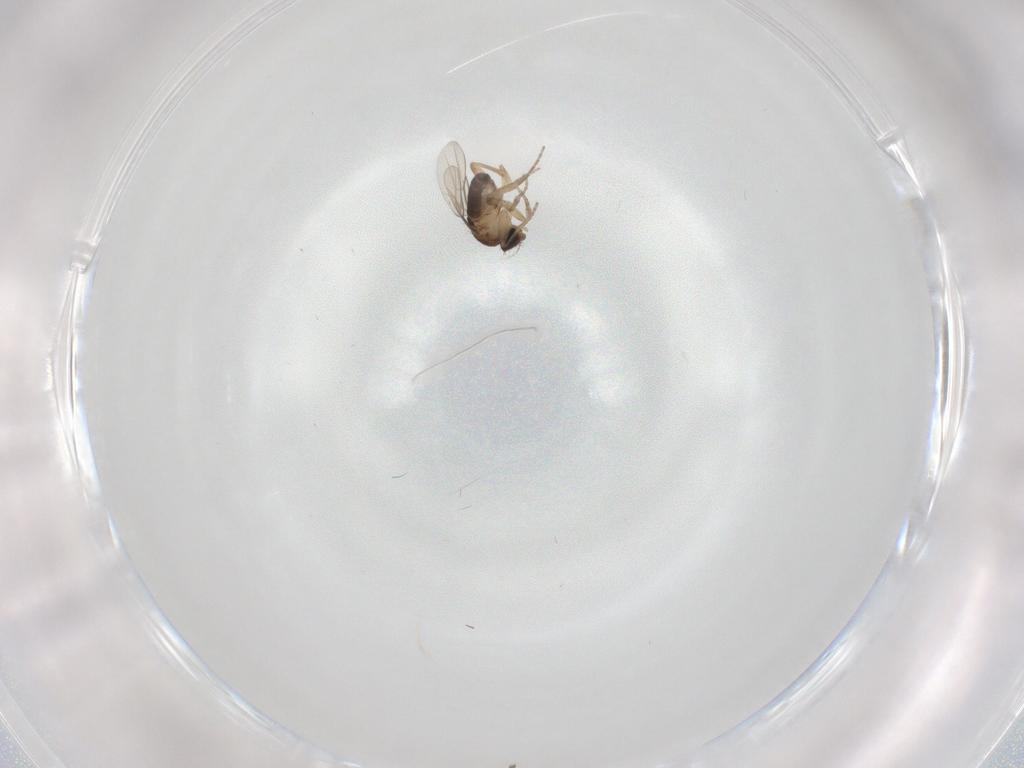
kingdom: Animalia
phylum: Arthropoda
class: Insecta
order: Diptera
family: Phoridae
